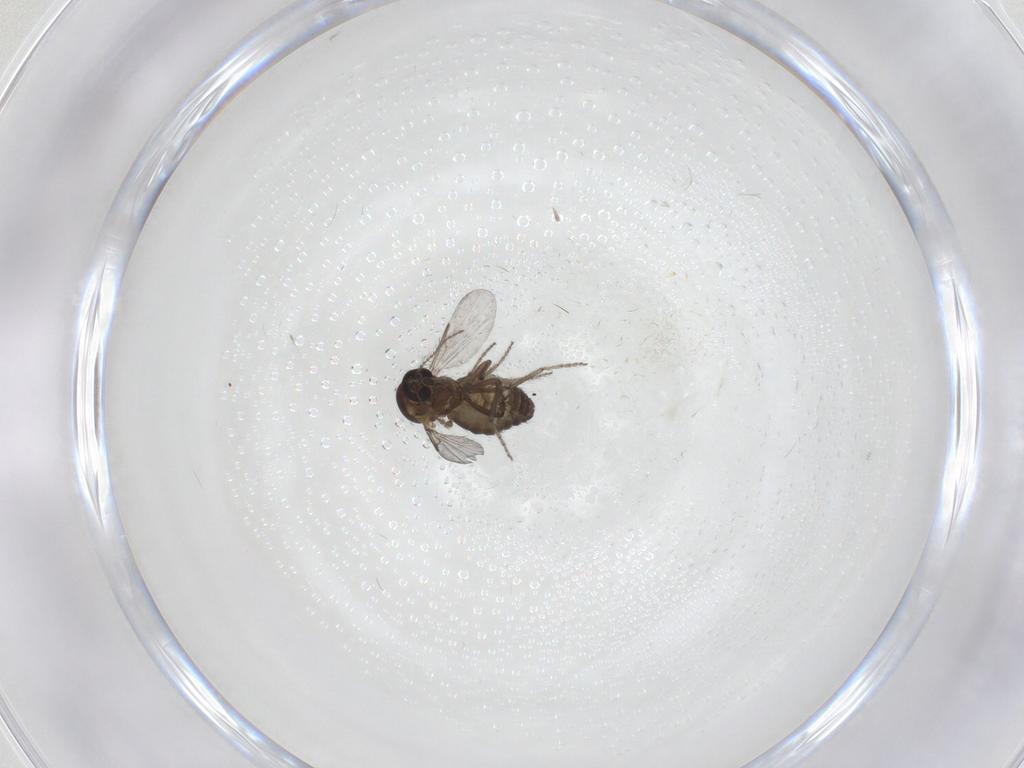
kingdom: Animalia
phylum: Arthropoda
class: Insecta
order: Diptera
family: Ceratopogonidae
